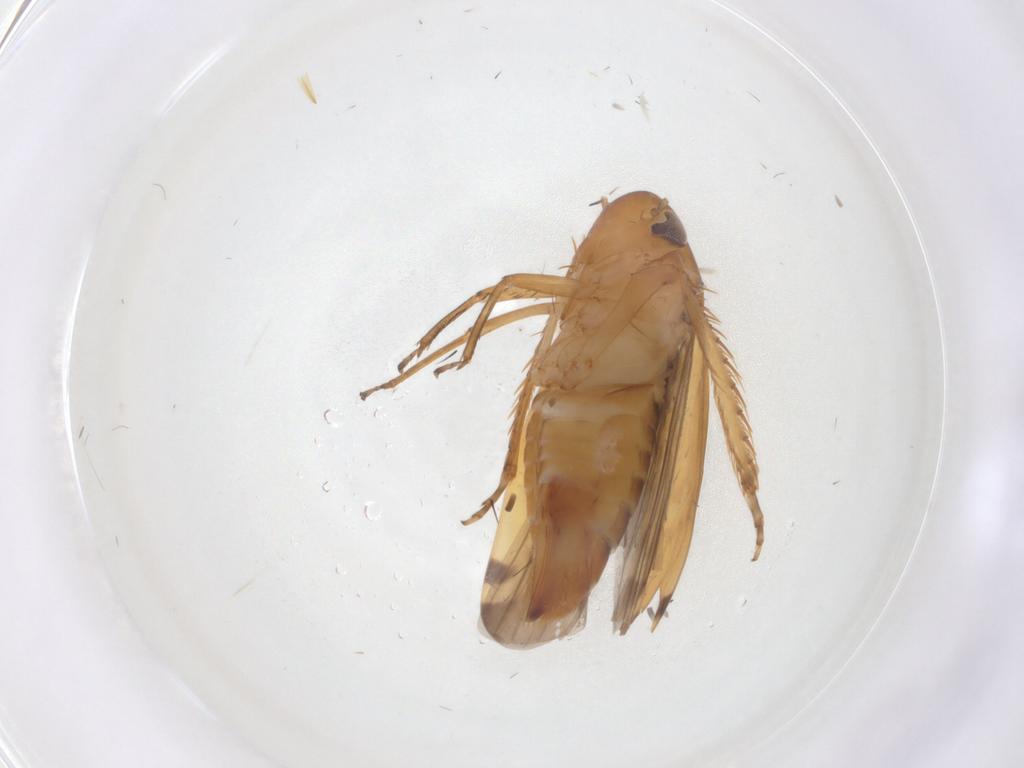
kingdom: Animalia
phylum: Arthropoda
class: Insecta
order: Hemiptera
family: Cicadellidae
